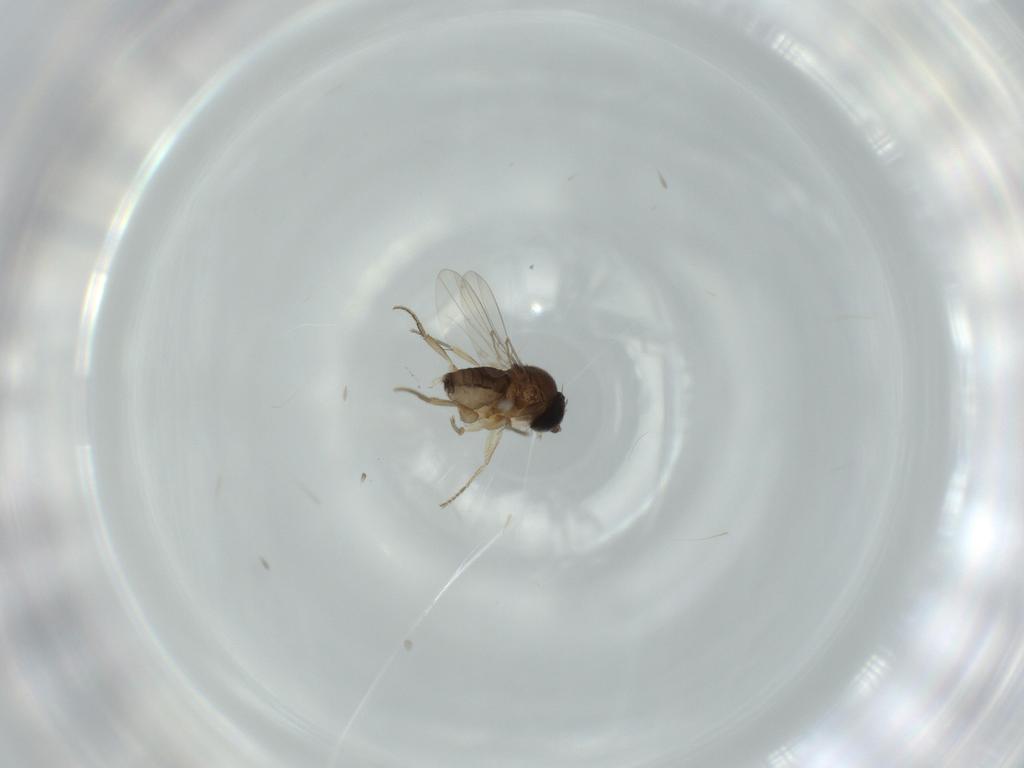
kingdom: Animalia
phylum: Arthropoda
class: Insecta
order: Diptera
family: Sphaeroceridae
